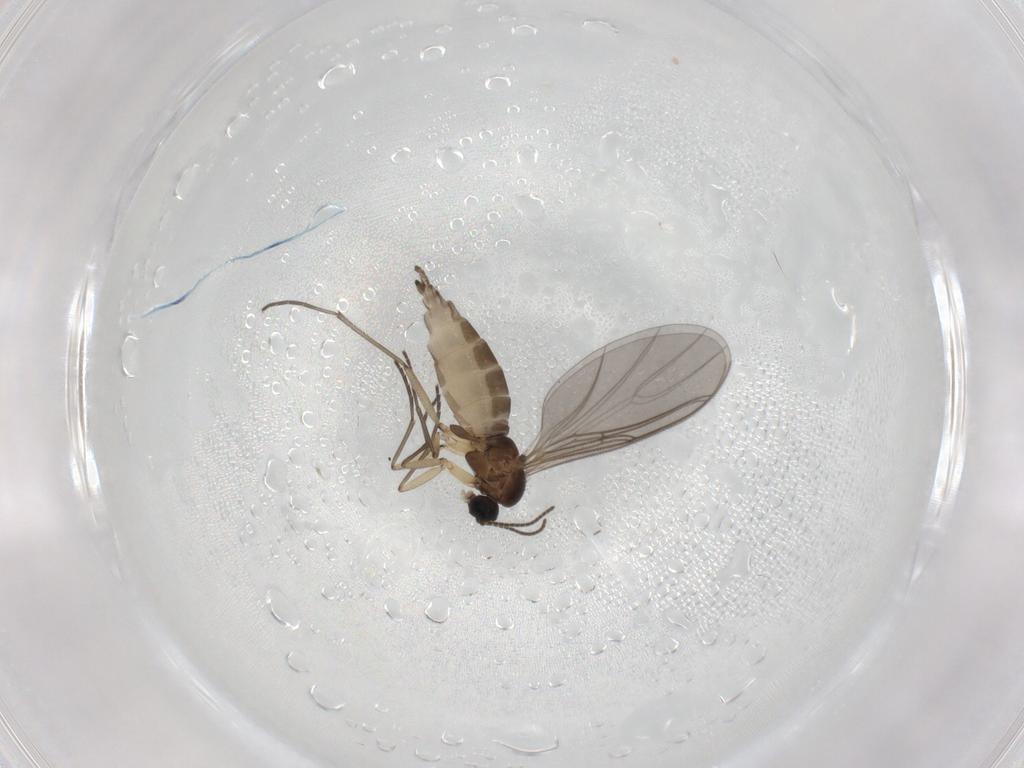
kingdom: Animalia
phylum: Arthropoda
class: Insecta
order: Diptera
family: Sciaridae
